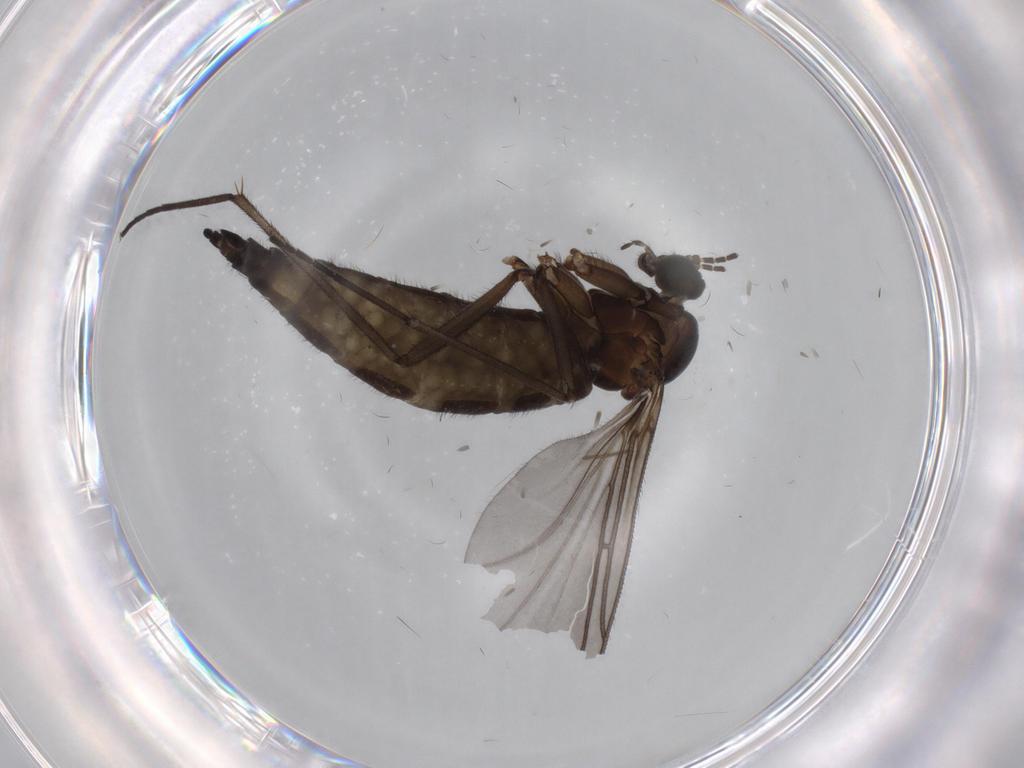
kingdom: Animalia
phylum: Arthropoda
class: Insecta
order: Diptera
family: Sciaridae
